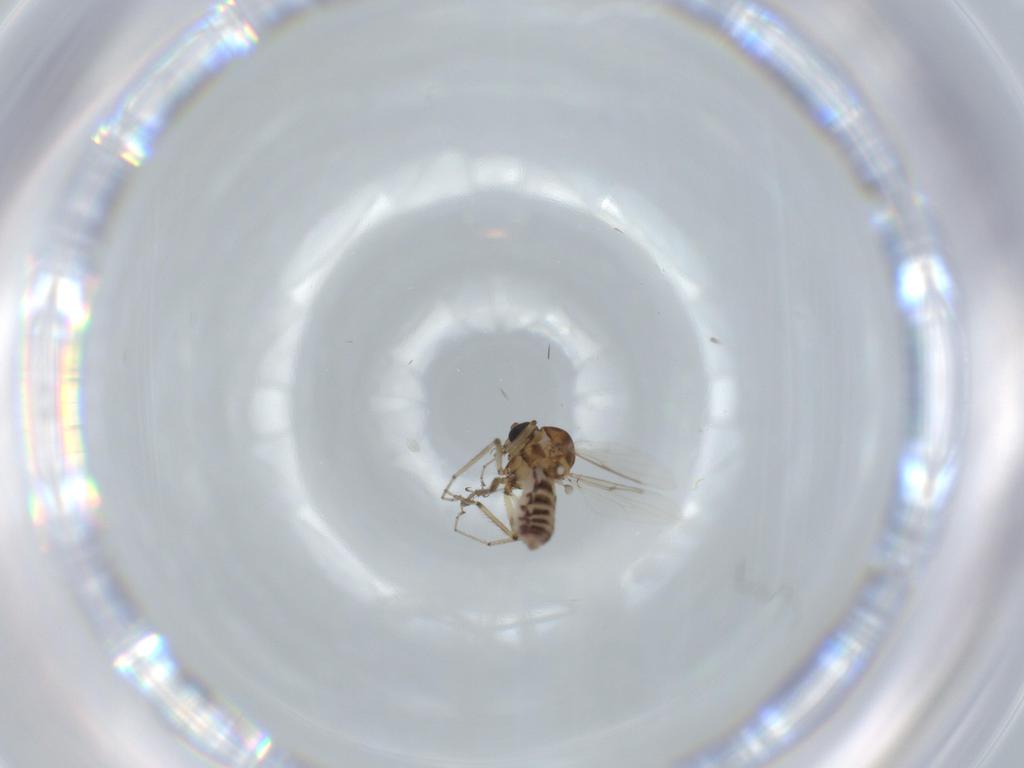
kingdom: Animalia
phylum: Arthropoda
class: Insecta
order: Diptera
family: Ceratopogonidae
